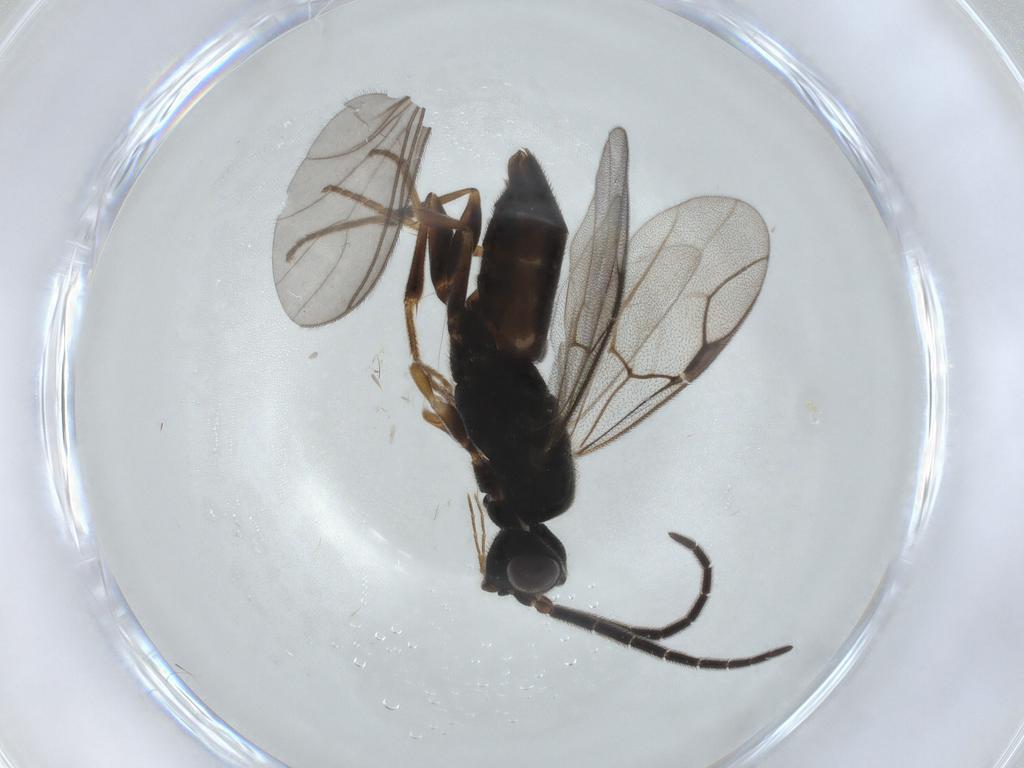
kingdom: Animalia
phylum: Arthropoda
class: Insecta
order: Hymenoptera
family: Dryinidae
